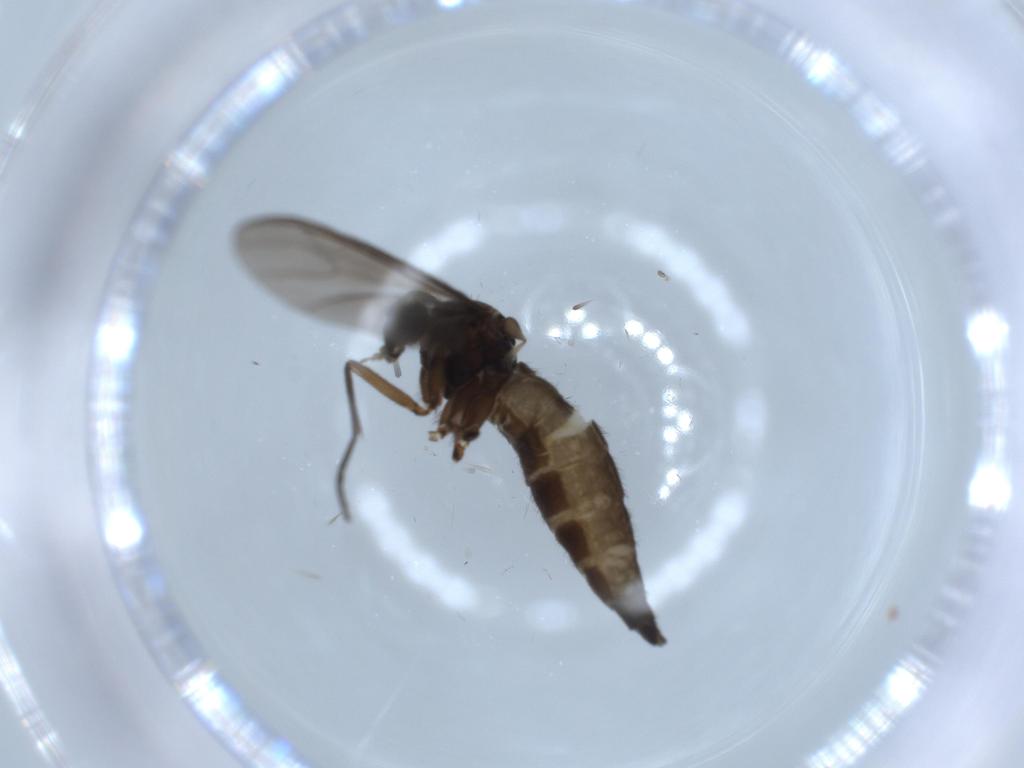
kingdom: Animalia
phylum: Arthropoda
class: Insecta
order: Diptera
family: Sciaridae
